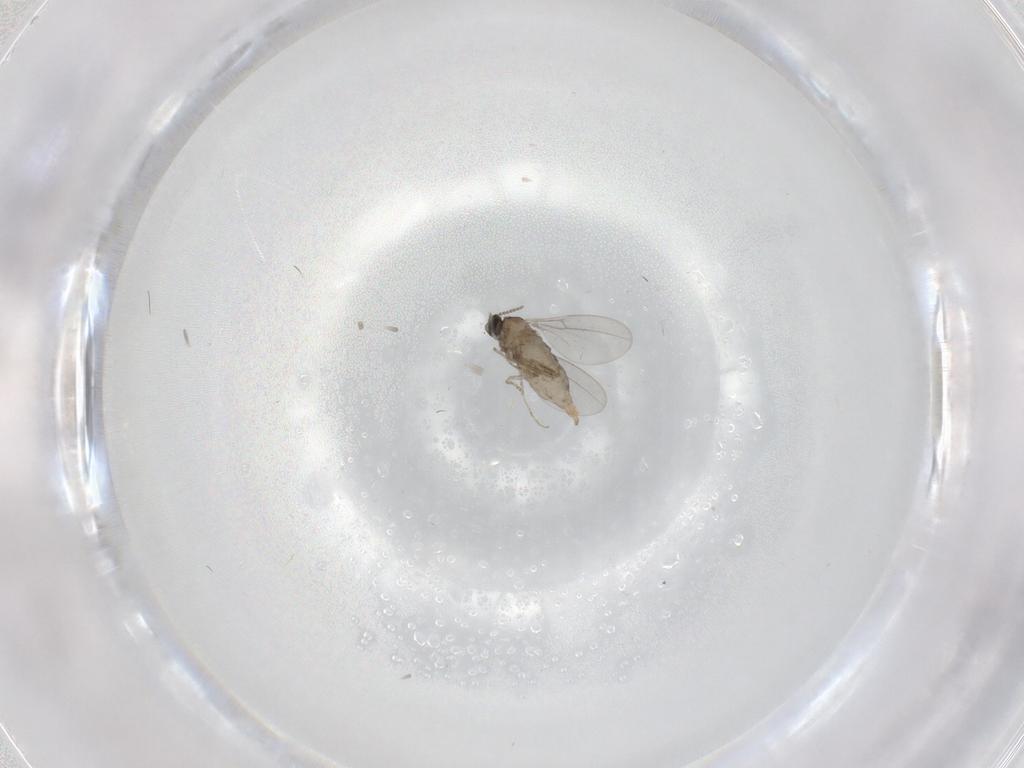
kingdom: Animalia
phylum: Arthropoda
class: Insecta
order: Diptera
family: Cecidomyiidae
